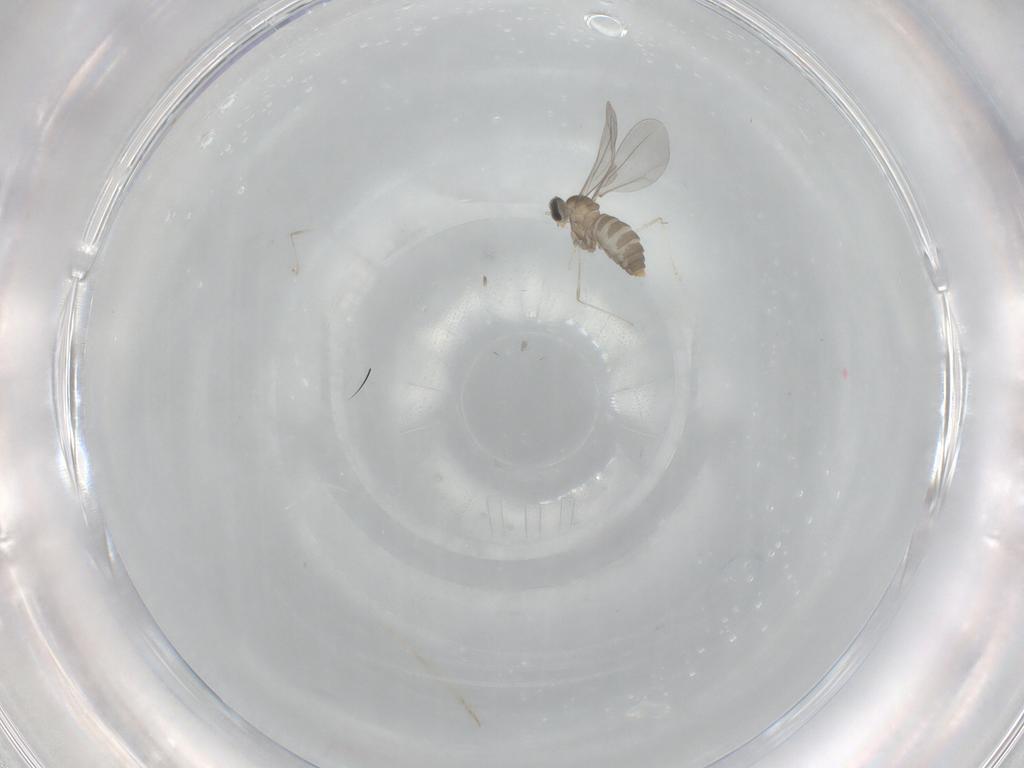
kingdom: Animalia
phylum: Arthropoda
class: Insecta
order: Diptera
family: Cecidomyiidae
